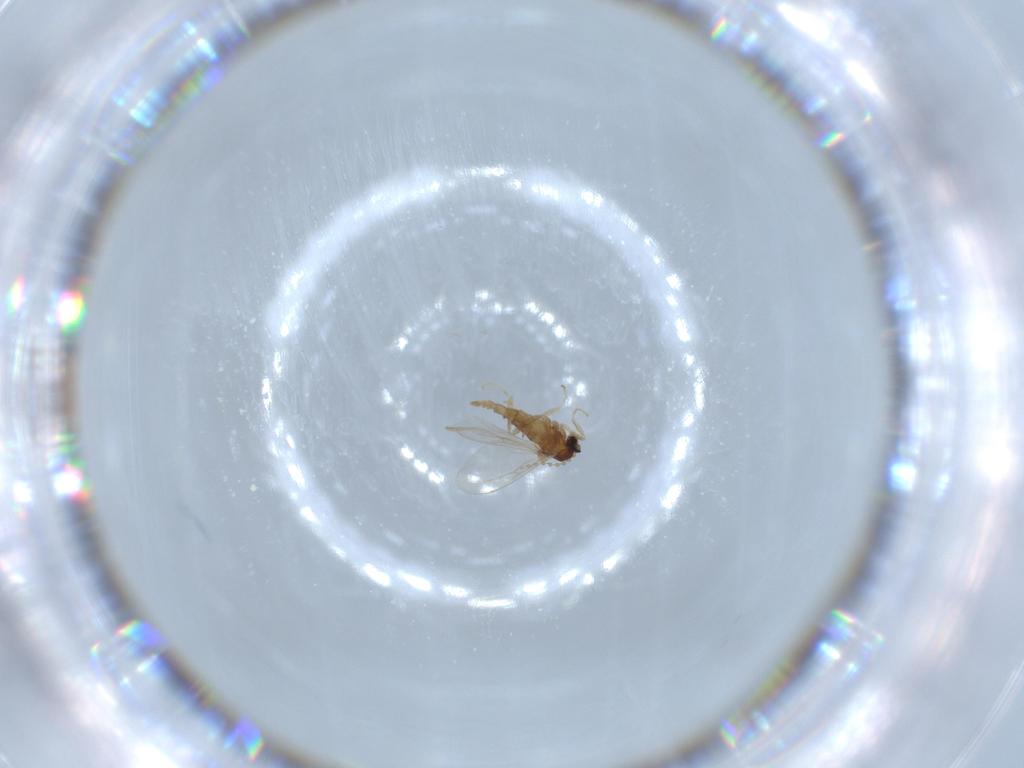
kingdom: Animalia
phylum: Arthropoda
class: Insecta
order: Diptera
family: Cecidomyiidae
